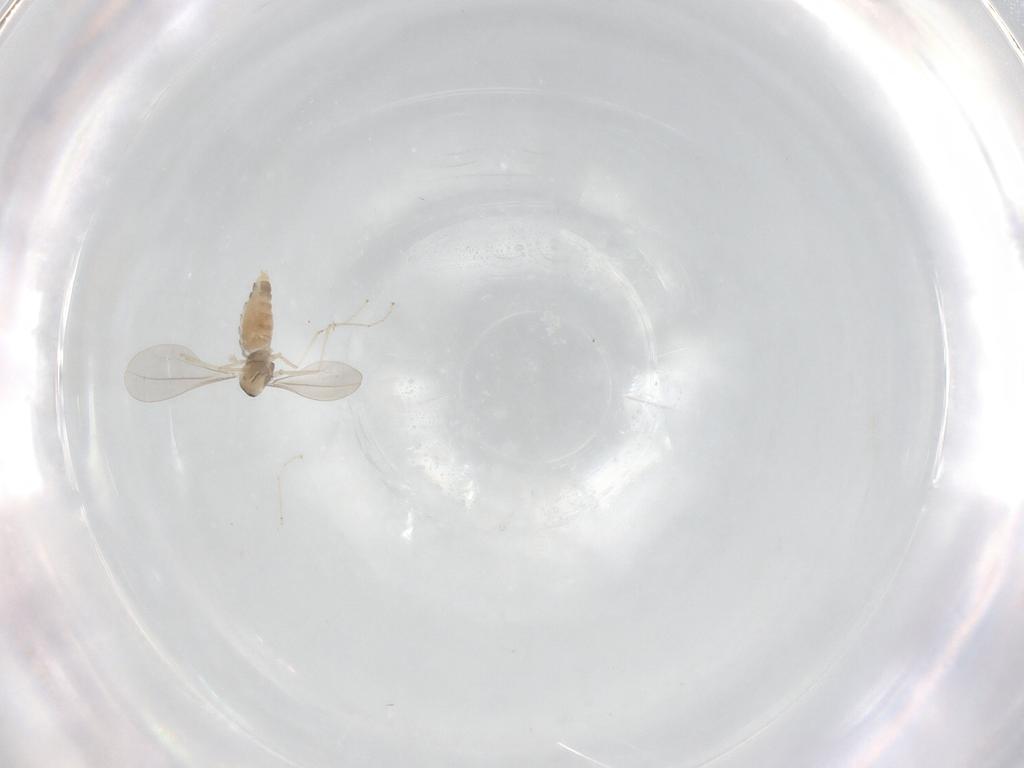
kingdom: Animalia
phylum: Arthropoda
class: Insecta
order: Diptera
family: Cecidomyiidae
